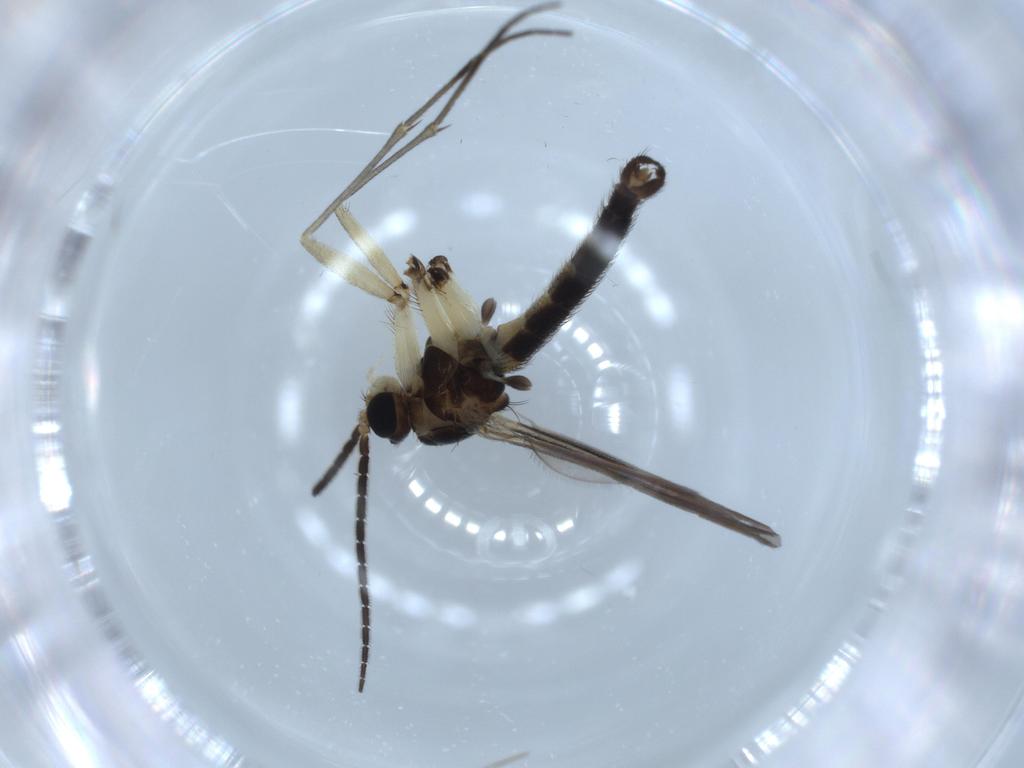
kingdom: Animalia
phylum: Arthropoda
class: Insecta
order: Diptera
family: Sciaridae
